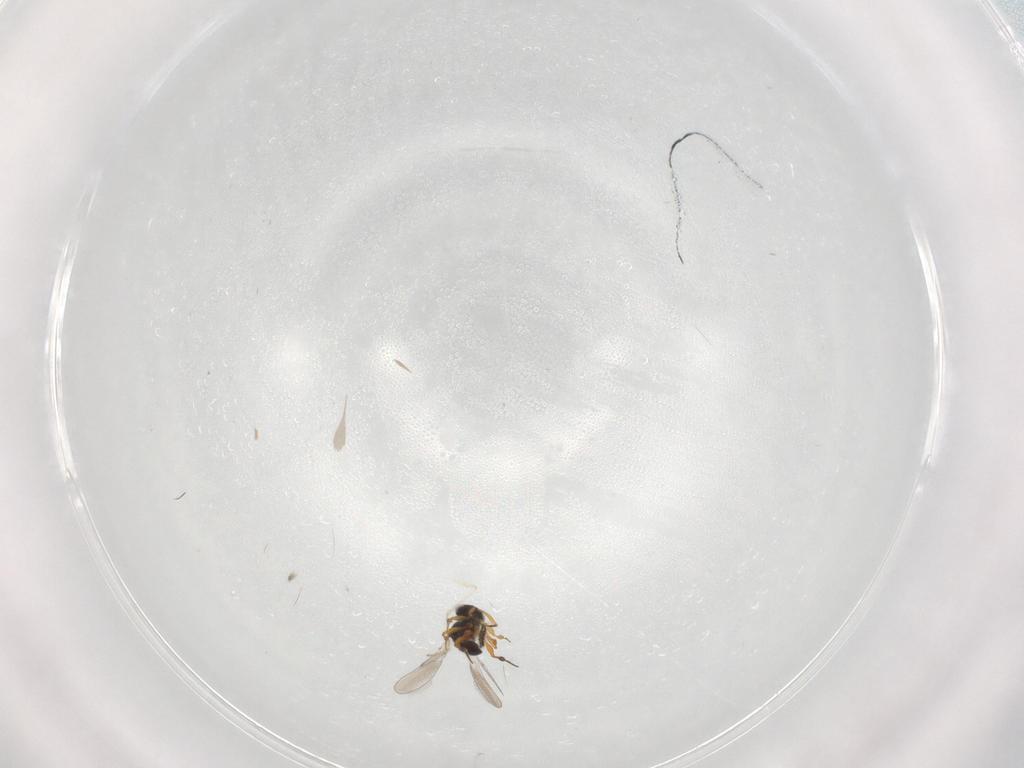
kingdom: Animalia
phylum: Arthropoda
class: Insecta
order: Hymenoptera
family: Platygastridae
